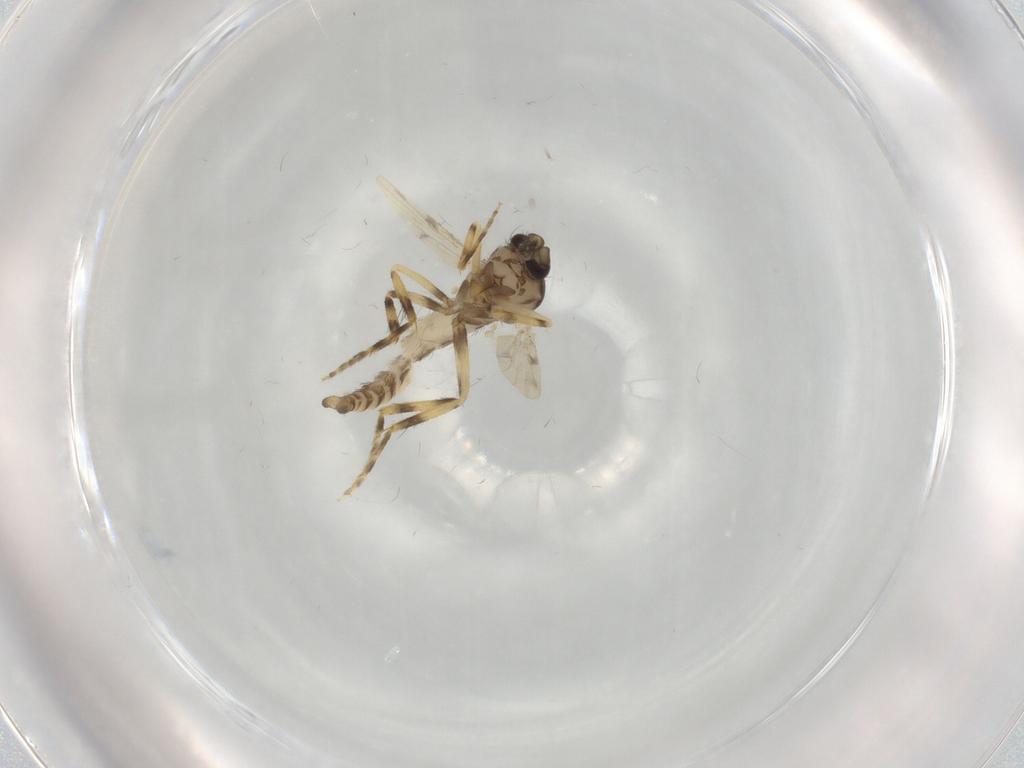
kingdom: Animalia
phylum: Arthropoda
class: Insecta
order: Diptera
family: Ceratopogonidae
